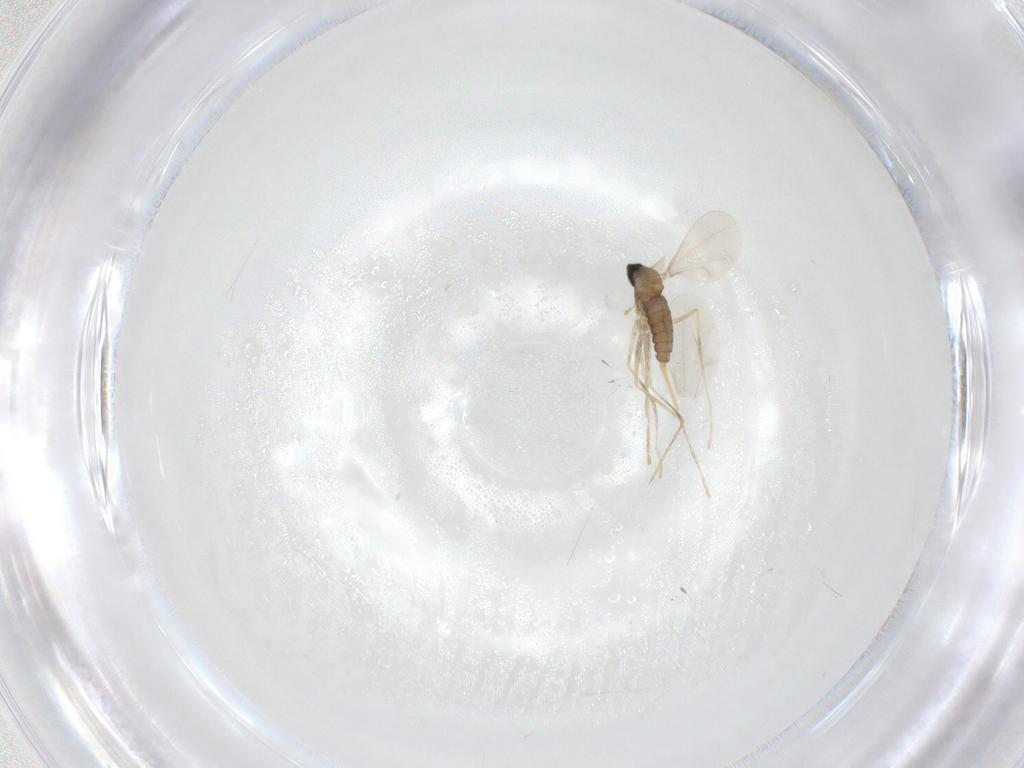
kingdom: Animalia
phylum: Arthropoda
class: Insecta
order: Diptera
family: Cecidomyiidae
